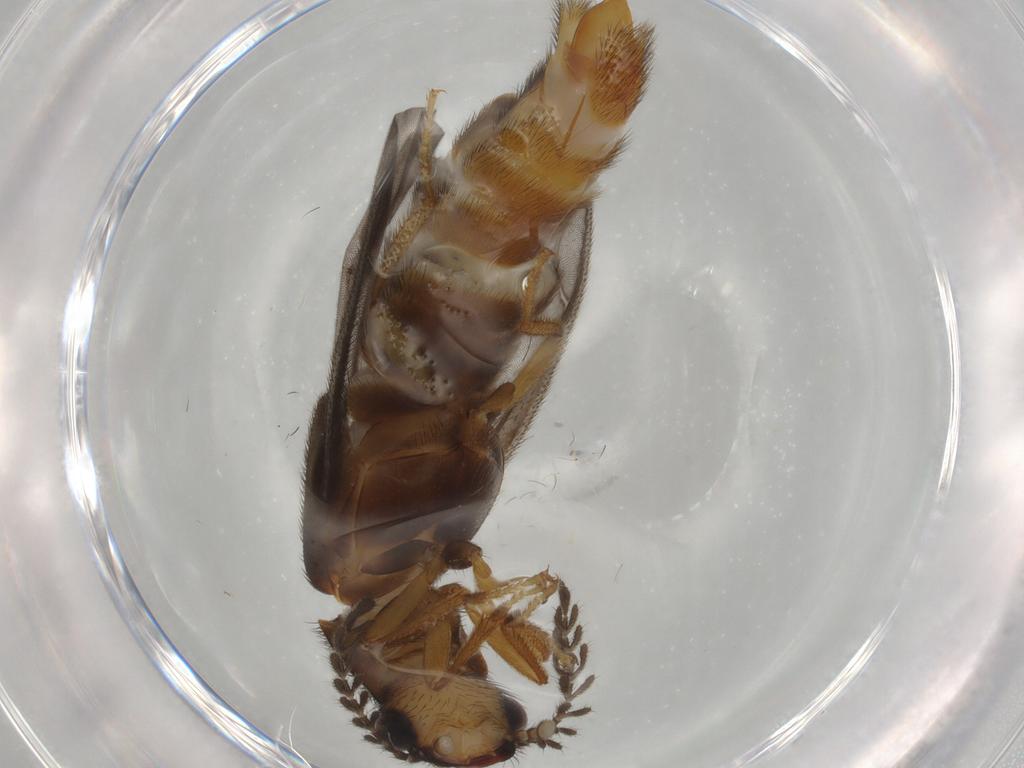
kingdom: Animalia
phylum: Arthropoda
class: Insecta
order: Coleoptera
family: Phengodidae
